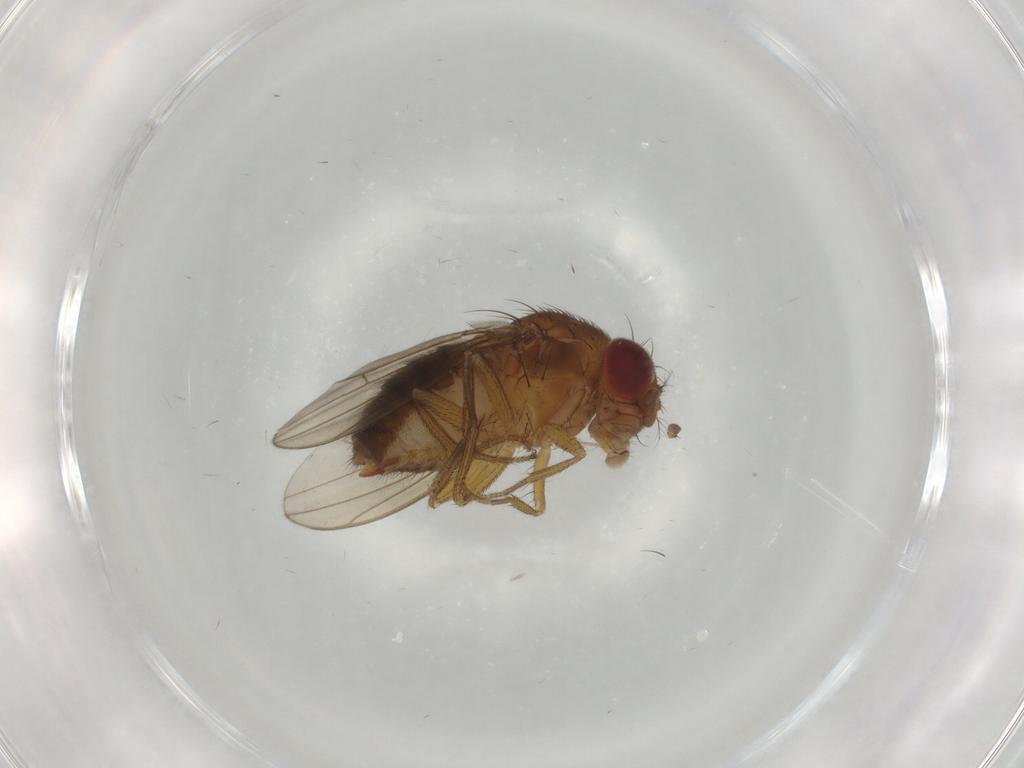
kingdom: Animalia
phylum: Arthropoda
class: Insecta
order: Diptera
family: Drosophilidae
